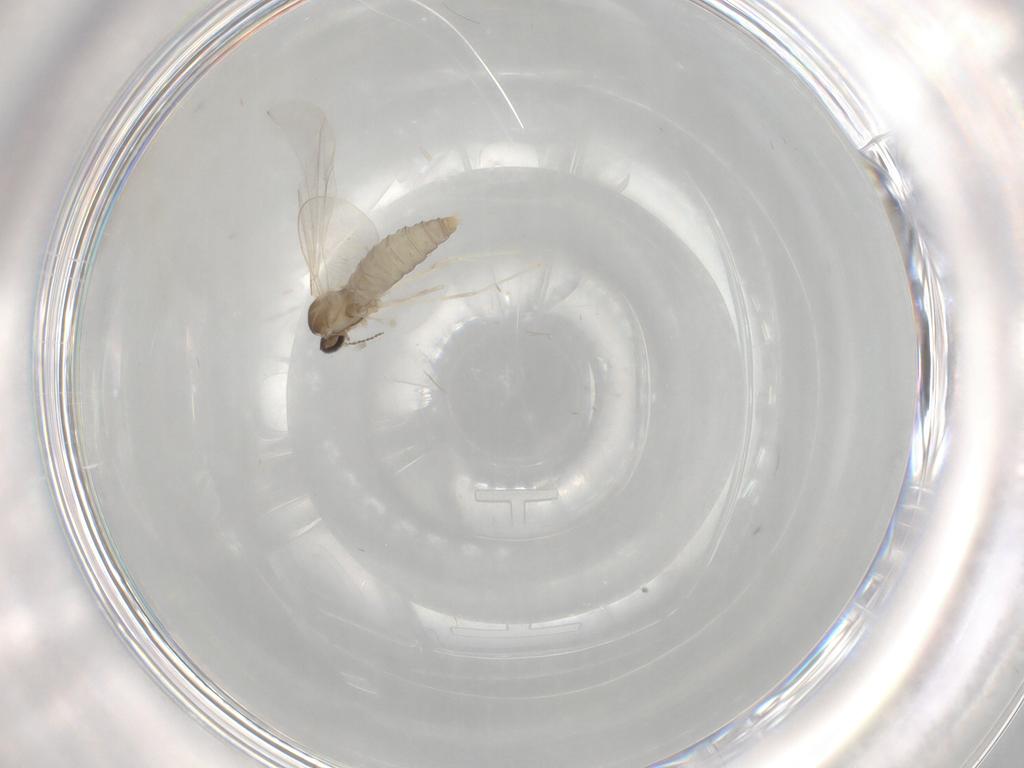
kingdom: Animalia
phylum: Arthropoda
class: Insecta
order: Diptera
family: Cecidomyiidae
